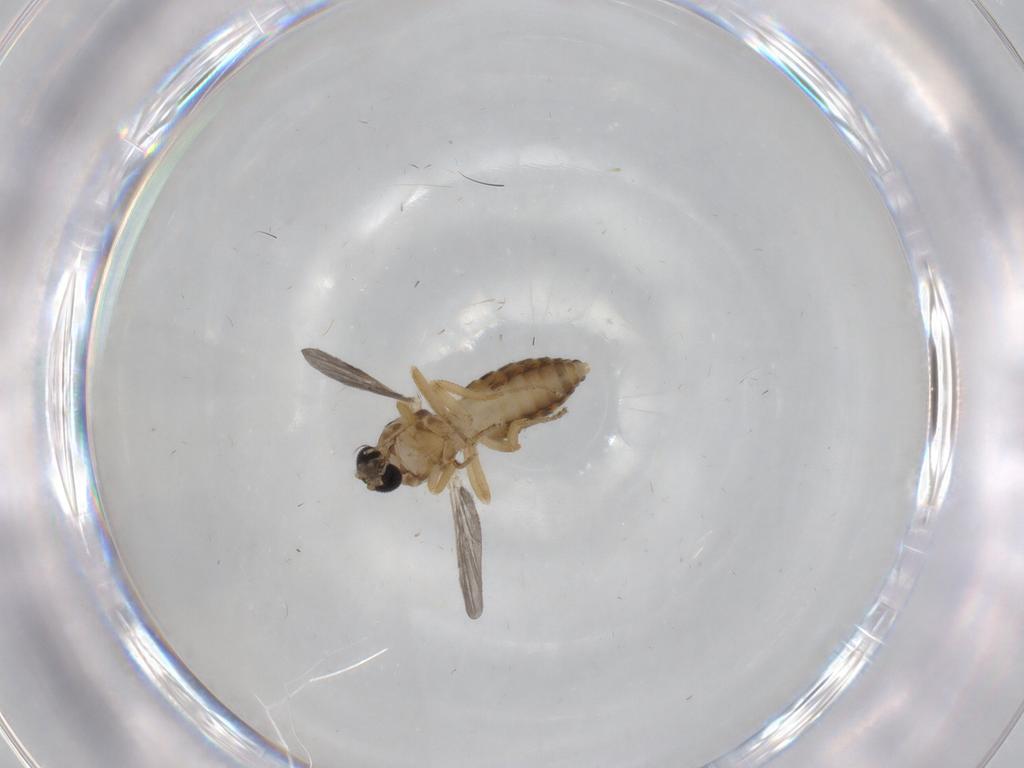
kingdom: Animalia
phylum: Arthropoda
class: Insecta
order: Diptera
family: Ceratopogonidae
